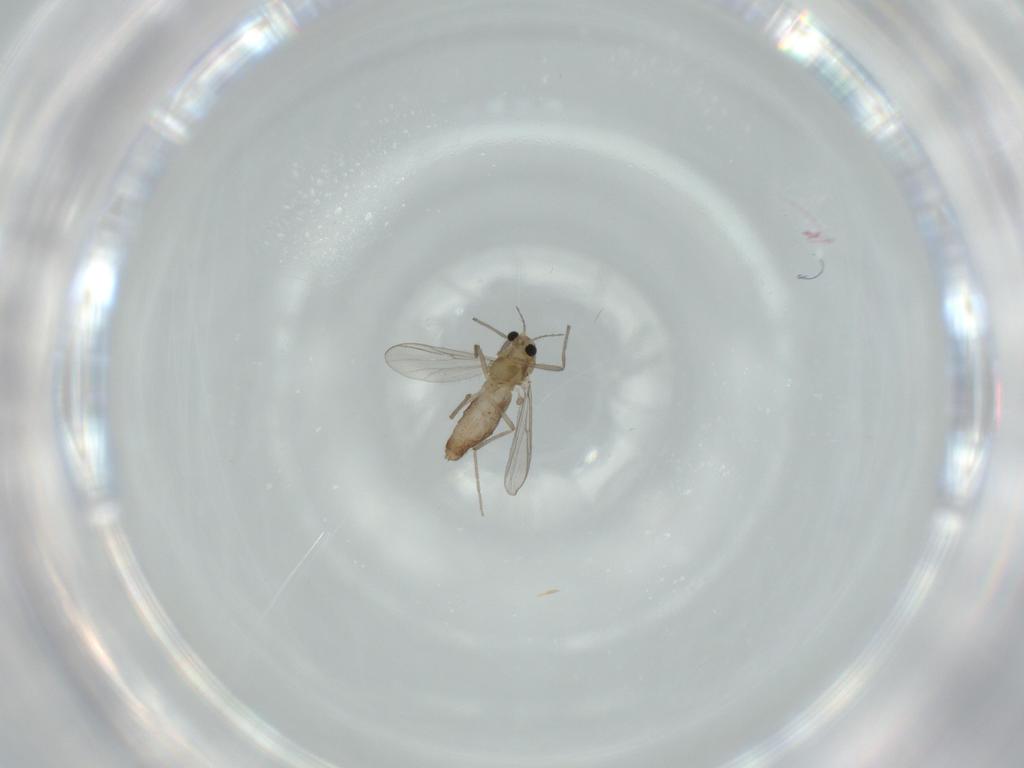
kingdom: Animalia
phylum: Arthropoda
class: Insecta
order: Diptera
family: Chironomidae
